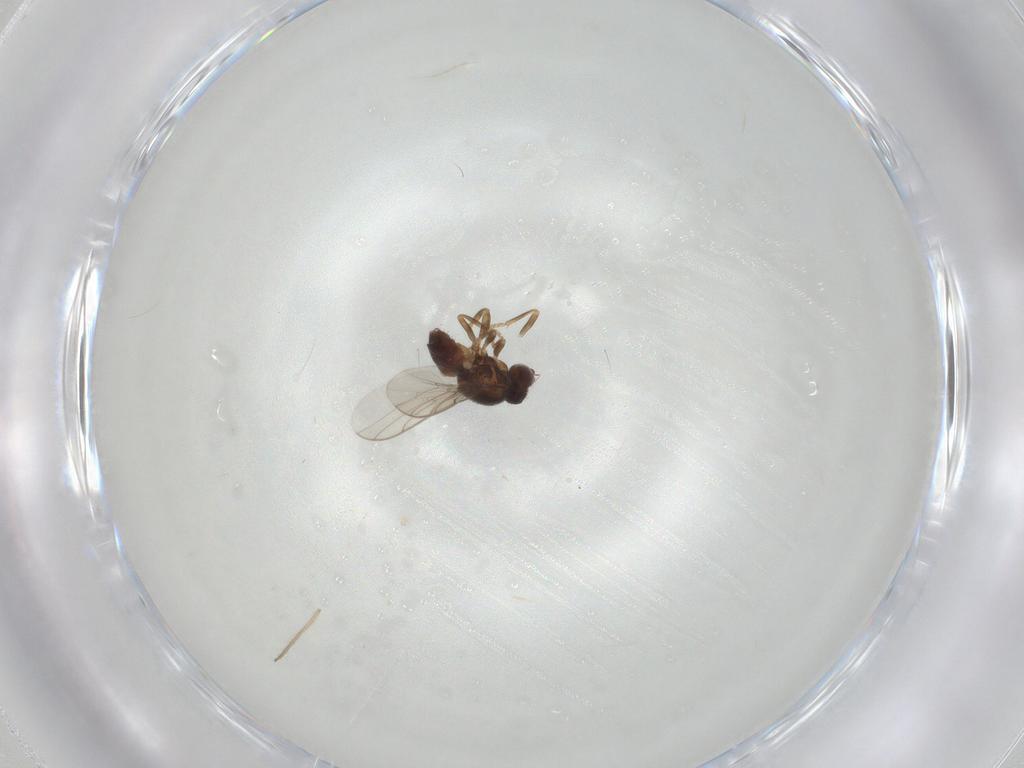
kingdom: Animalia
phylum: Arthropoda
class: Insecta
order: Diptera
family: Chloropidae
